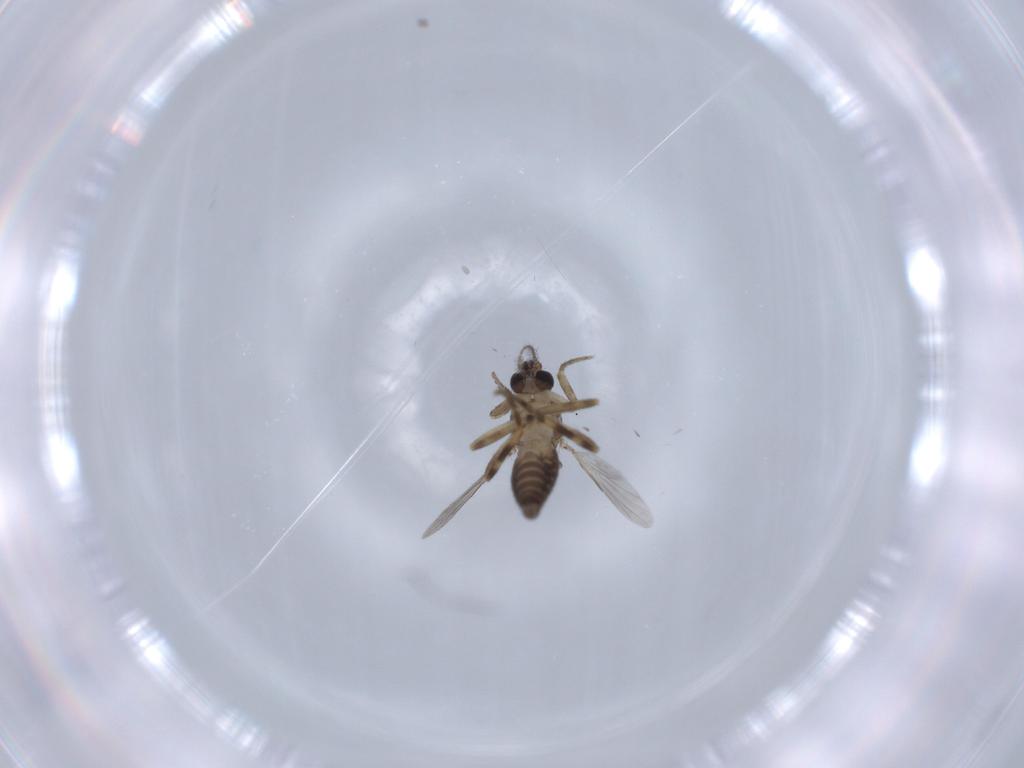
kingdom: Animalia
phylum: Arthropoda
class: Insecta
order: Diptera
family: Ceratopogonidae
